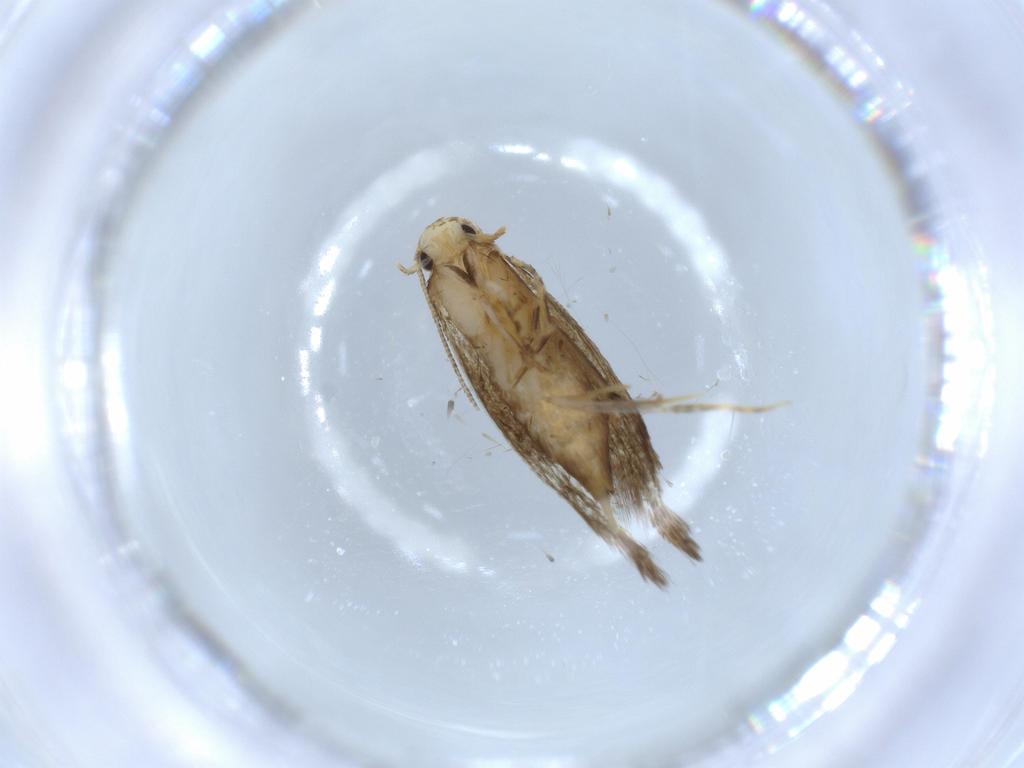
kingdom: Animalia
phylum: Arthropoda
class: Insecta
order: Lepidoptera
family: Tineidae
